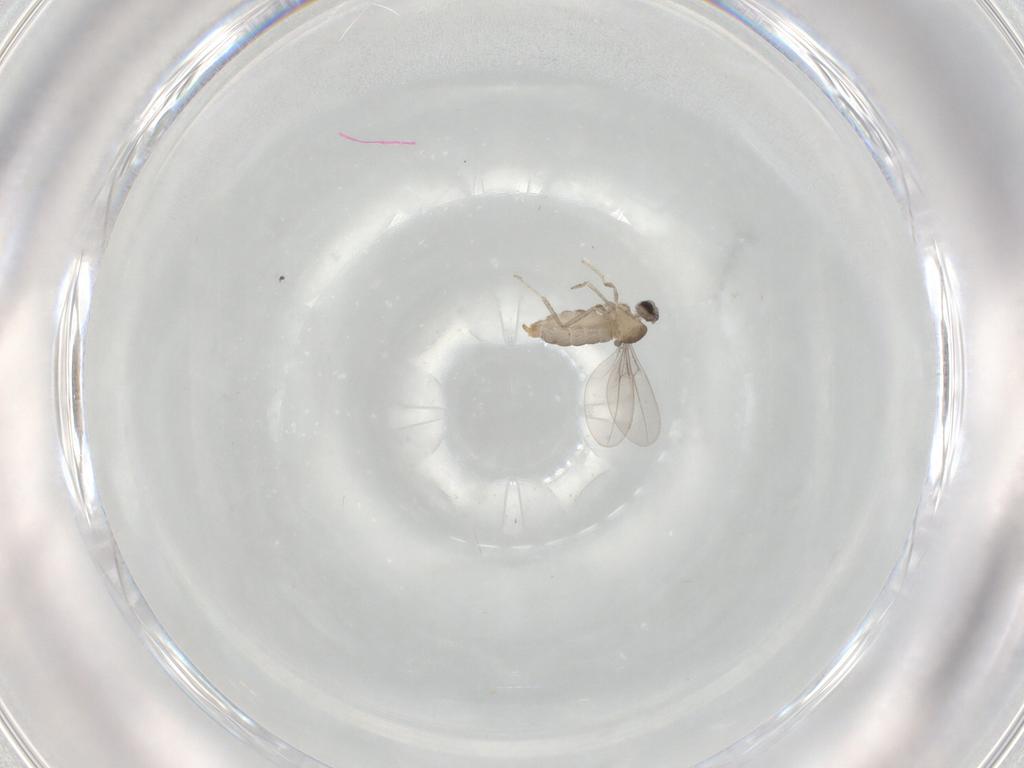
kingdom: Animalia
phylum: Arthropoda
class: Insecta
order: Diptera
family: Cecidomyiidae
